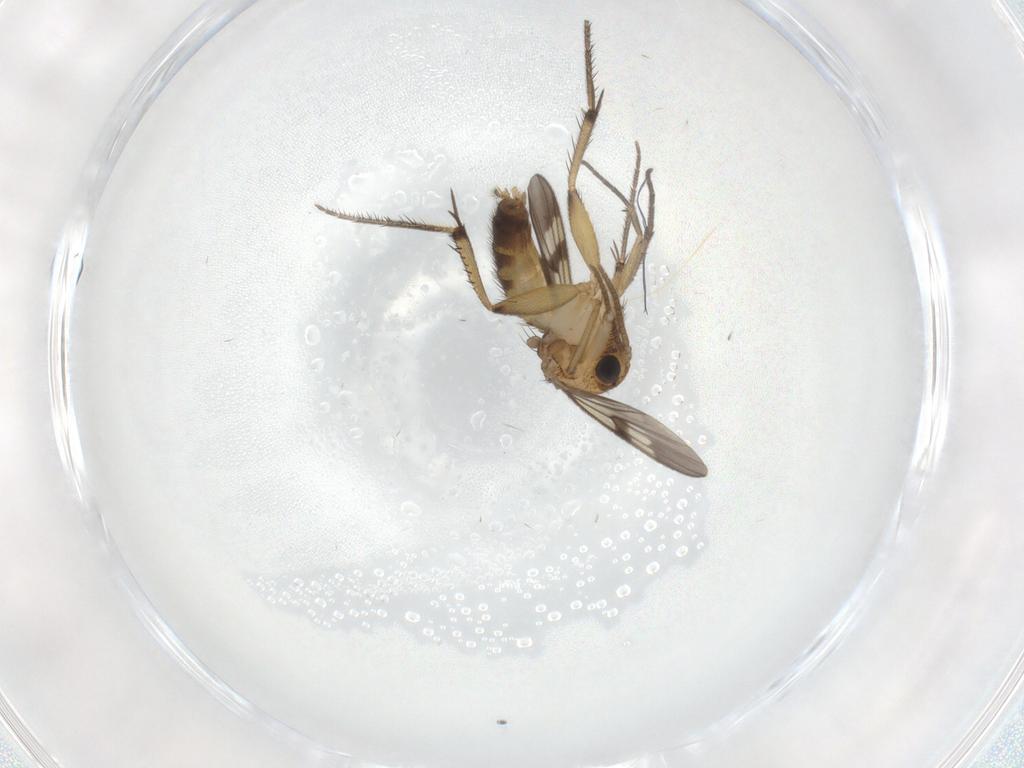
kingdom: Animalia
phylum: Arthropoda
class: Insecta
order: Diptera
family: Mycetophilidae
